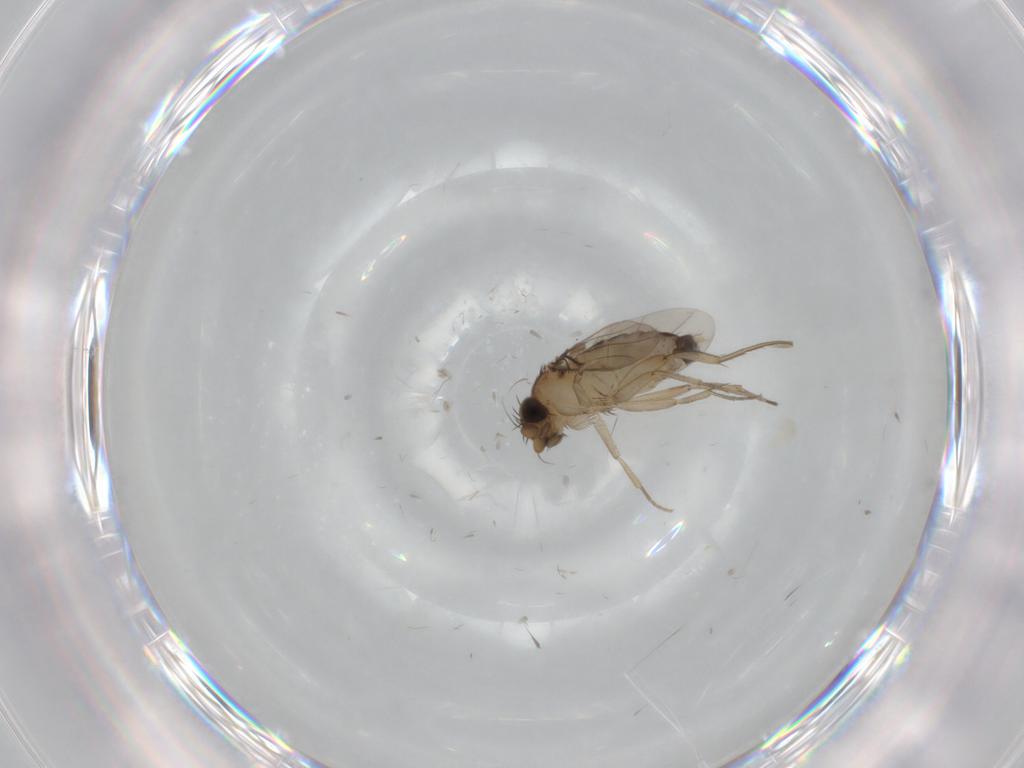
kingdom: Animalia
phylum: Arthropoda
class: Insecta
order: Diptera
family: Phoridae
